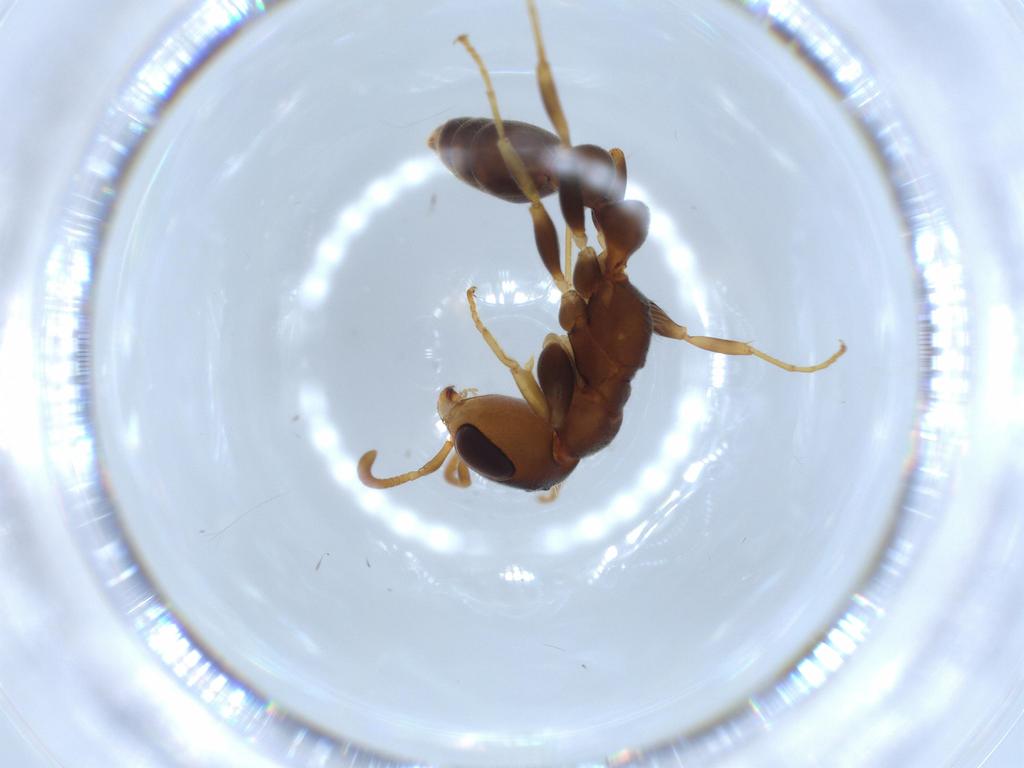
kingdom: Animalia
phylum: Arthropoda
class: Insecta
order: Hymenoptera
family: Formicidae
